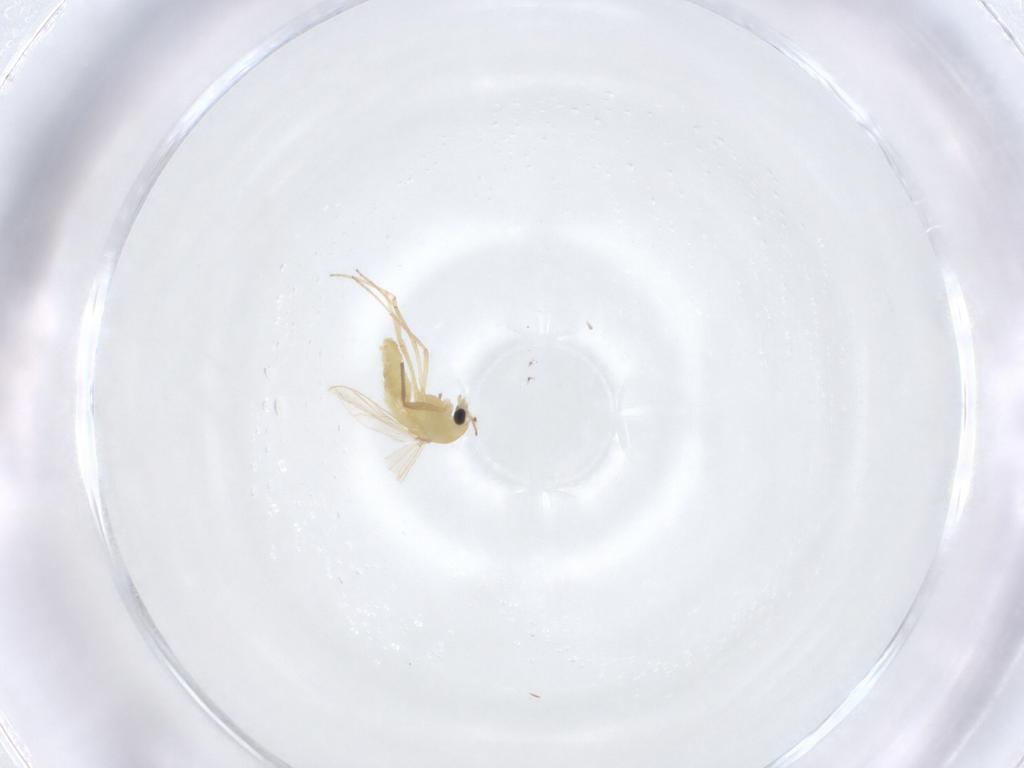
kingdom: Animalia
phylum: Arthropoda
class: Insecta
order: Diptera
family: Chironomidae
